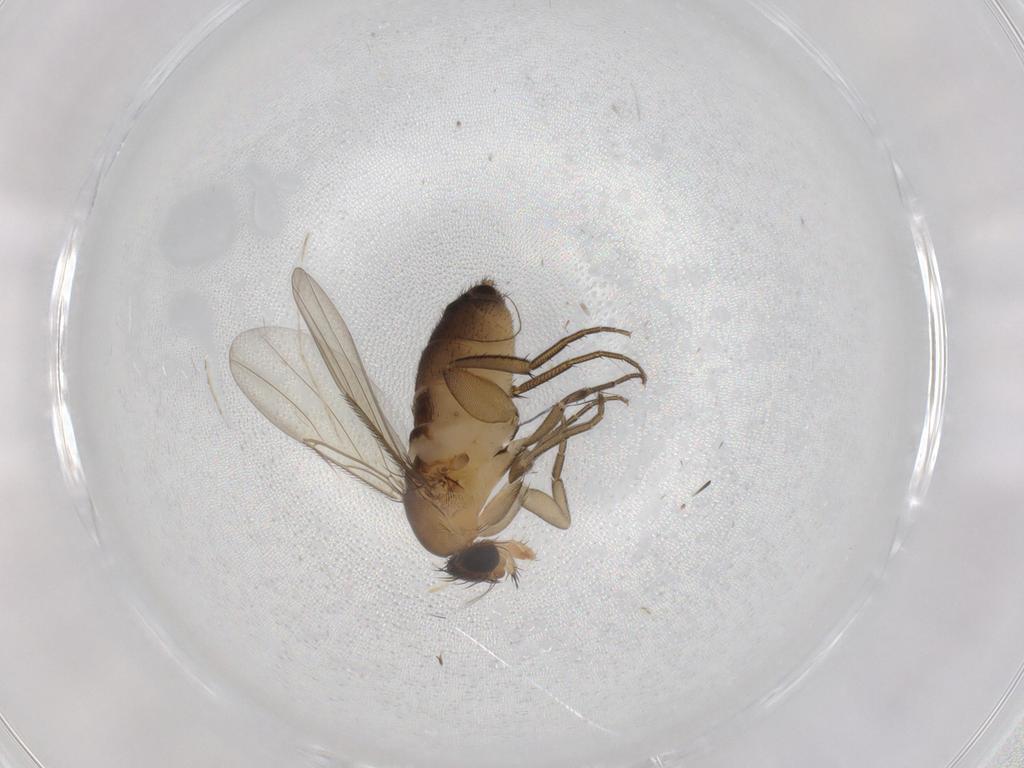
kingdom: Animalia
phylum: Arthropoda
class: Insecta
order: Diptera
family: Phoridae
